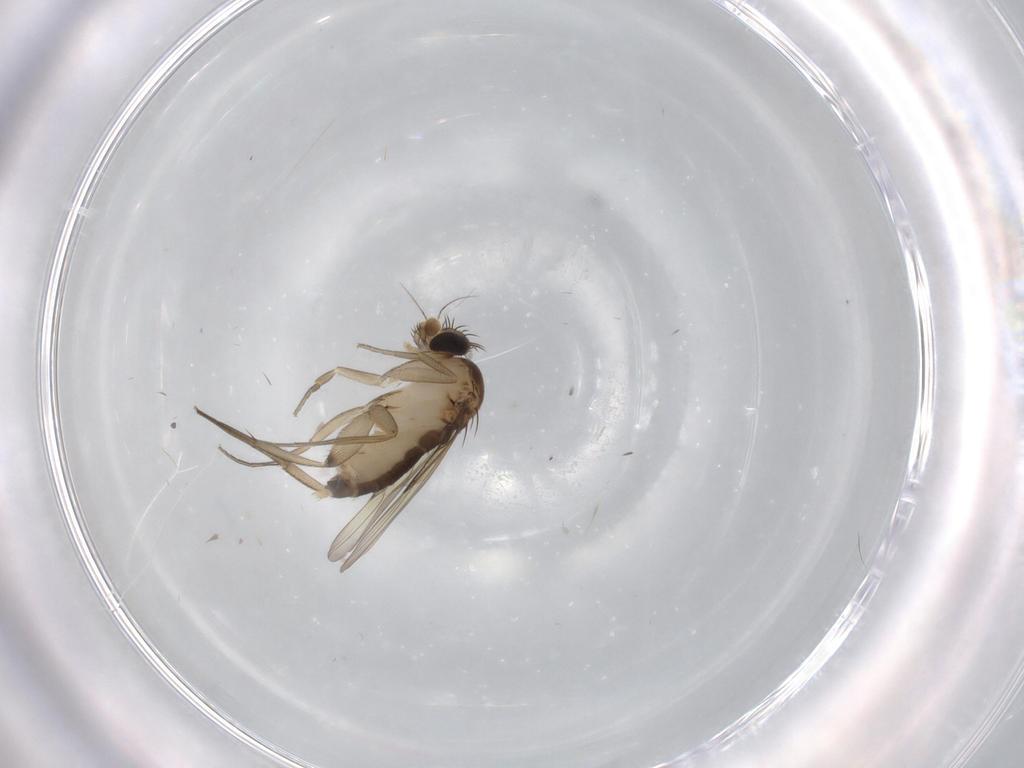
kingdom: Animalia
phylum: Arthropoda
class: Insecta
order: Diptera
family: Phoridae
